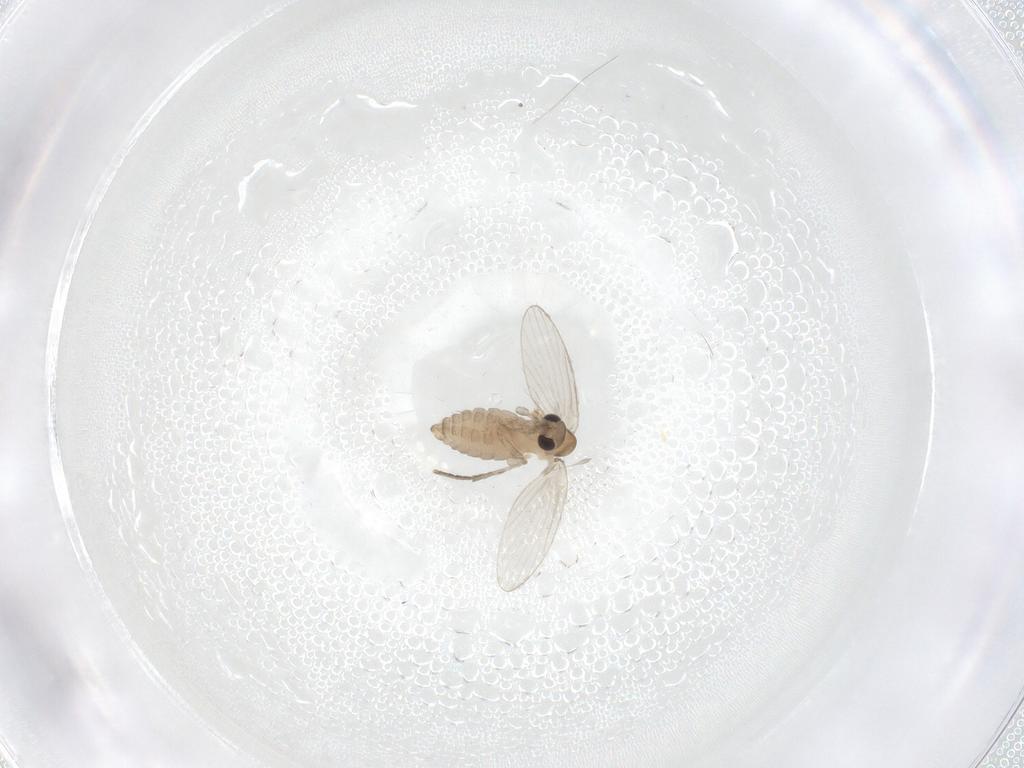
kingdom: Animalia
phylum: Arthropoda
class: Insecta
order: Diptera
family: Psychodidae
